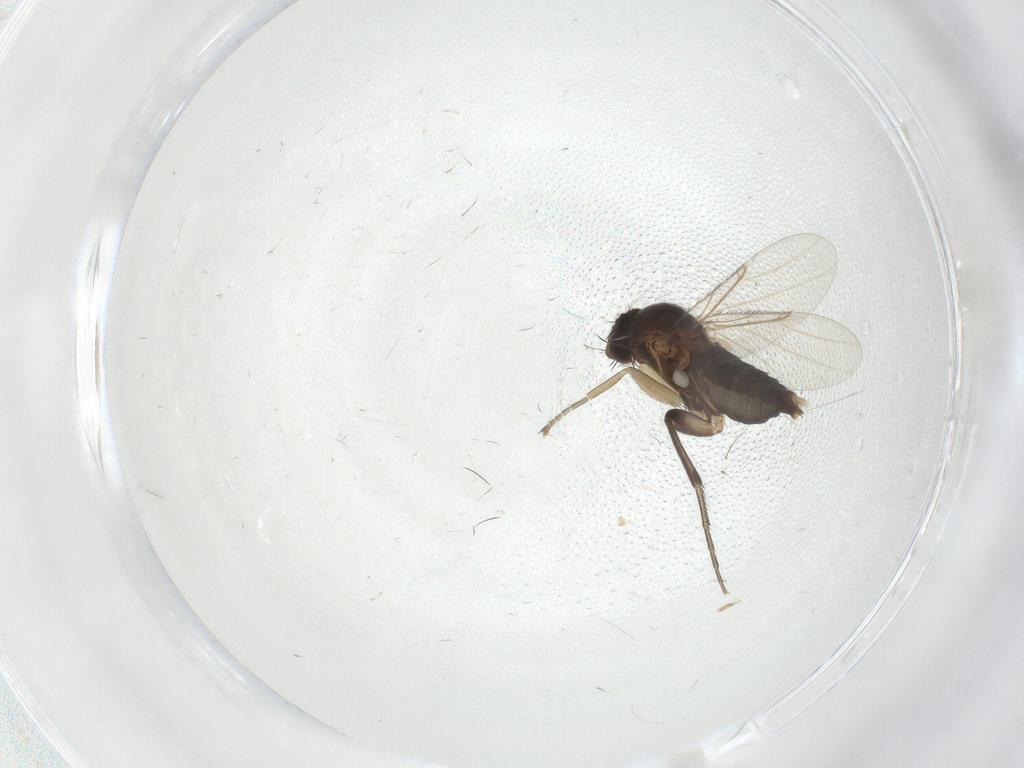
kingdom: Animalia
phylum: Arthropoda
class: Insecta
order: Diptera
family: Phoridae
